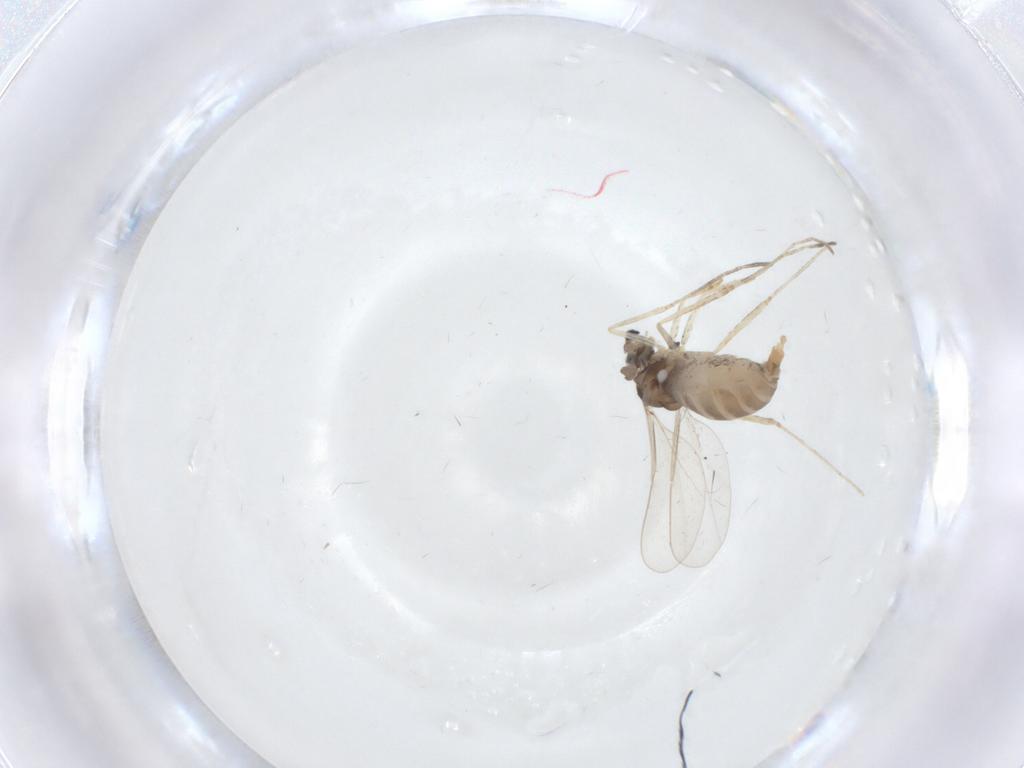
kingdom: Animalia
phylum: Arthropoda
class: Insecta
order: Diptera
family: Cecidomyiidae
